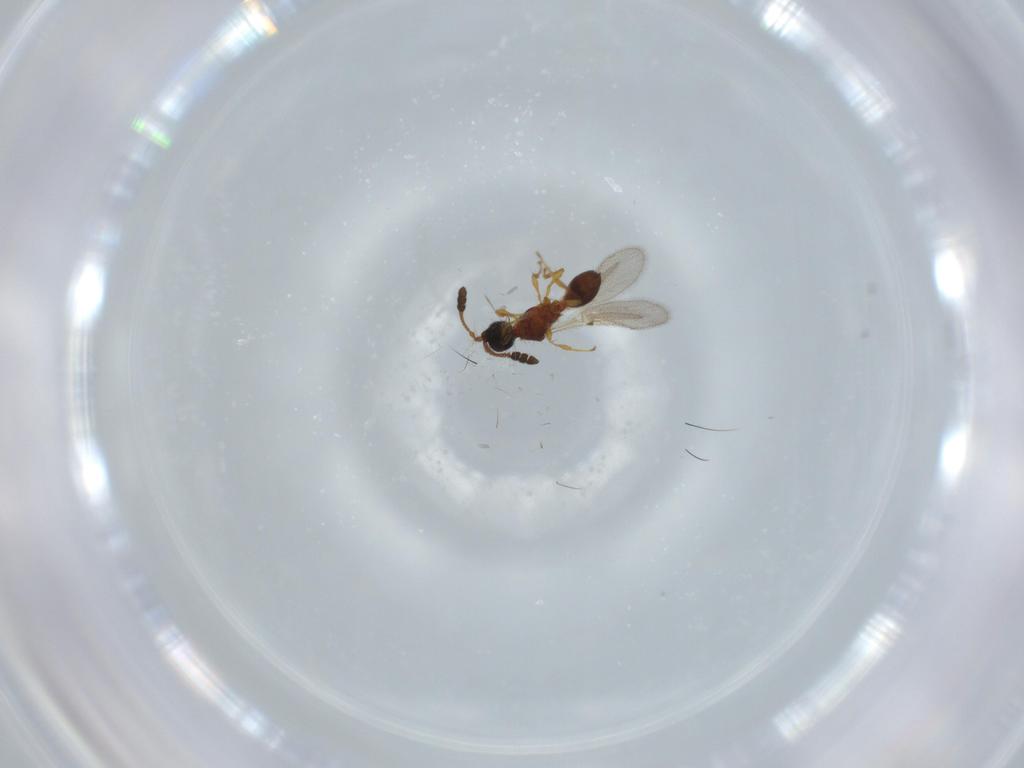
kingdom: Animalia
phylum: Arthropoda
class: Insecta
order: Hymenoptera
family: Diapriidae
